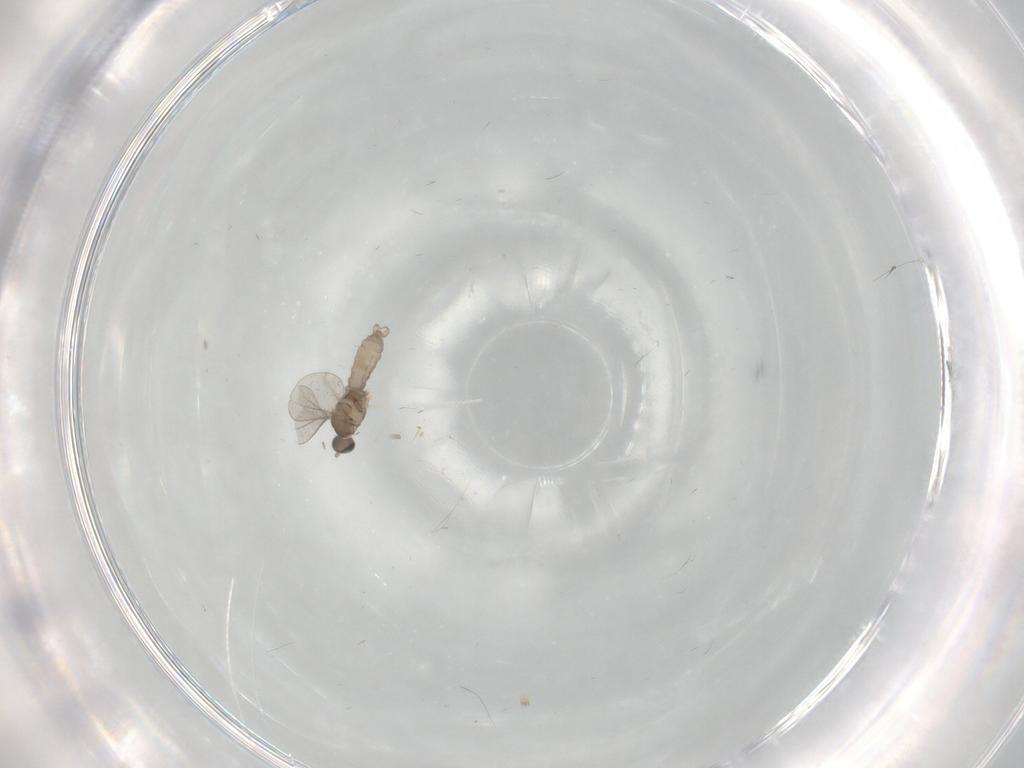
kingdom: Animalia
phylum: Arthropoda
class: Insecta
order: Diptera
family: Cecidomyiidae
